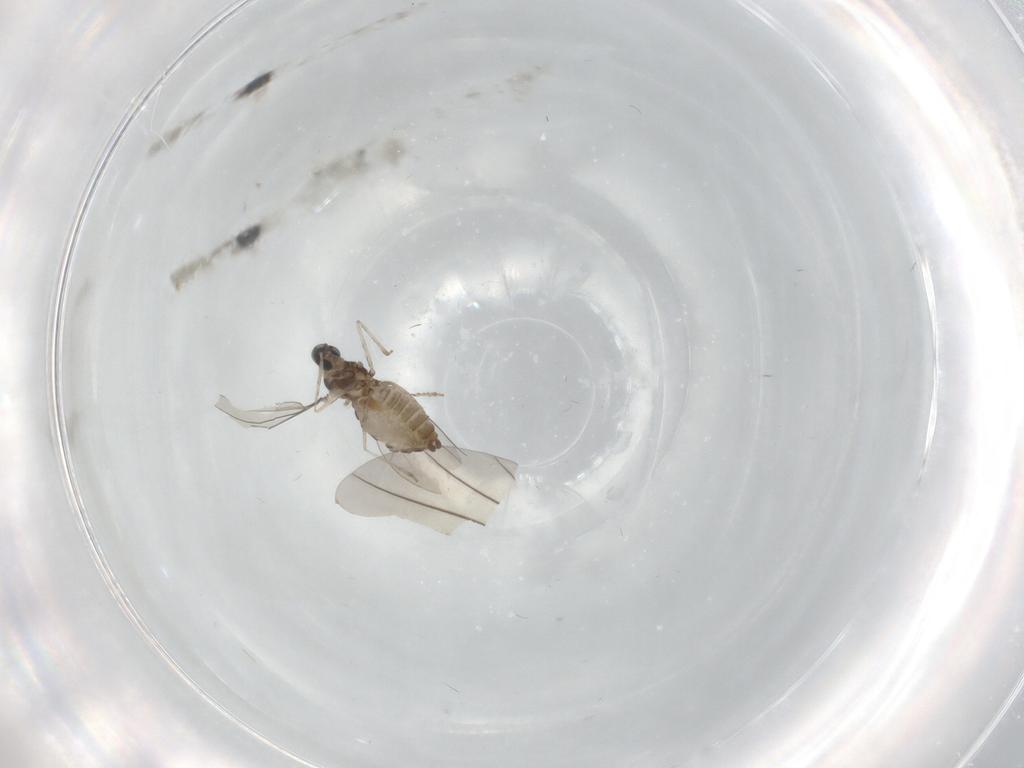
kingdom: Animalia
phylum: Arthropoda
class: Insecta
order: Diptera
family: Cecidomyiidae
